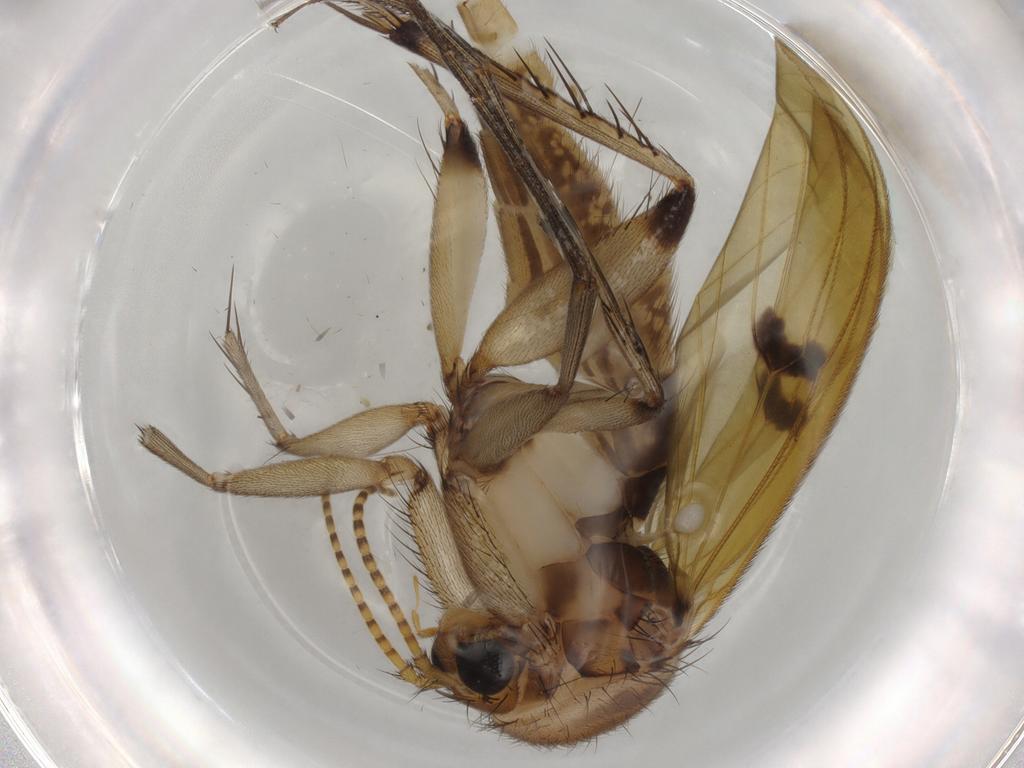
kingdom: Animalia
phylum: Arthropoda
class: Insecta
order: Diptera
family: Mycetophilidae
